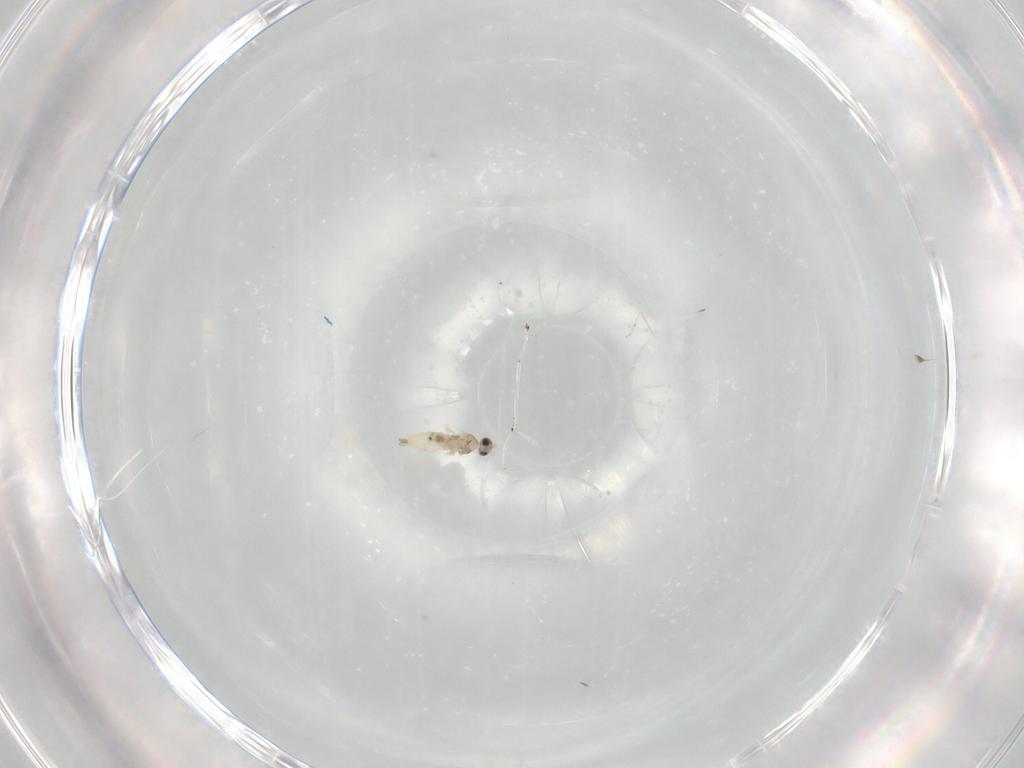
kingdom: Animalia
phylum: Arthropoda
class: Insecta
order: Diptera
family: Cecidomyiidae
